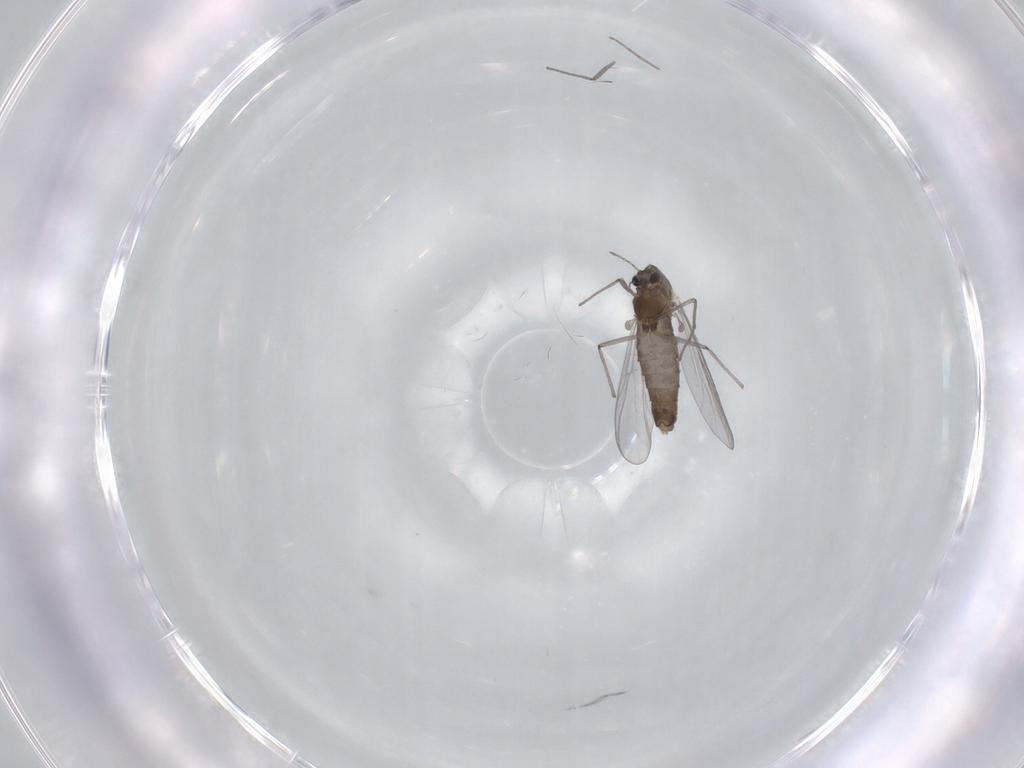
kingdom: Animalia
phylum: Arthropoda
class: Insecta
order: Diptera
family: Chironomidae
